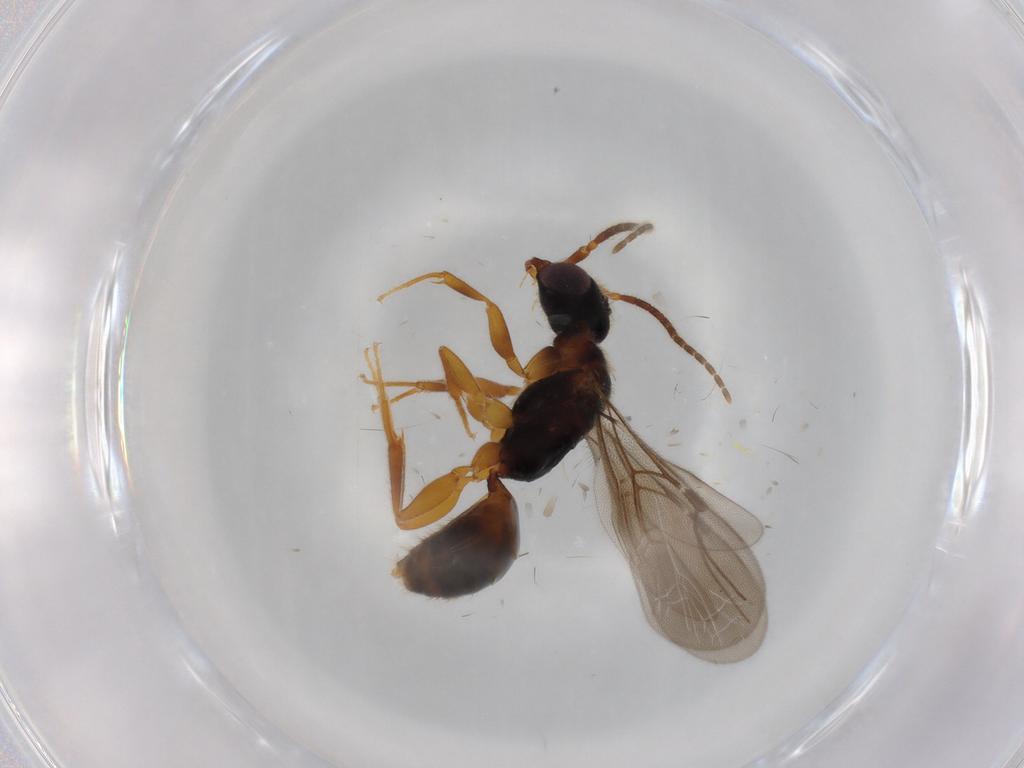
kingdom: Animalia
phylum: Arthropoda
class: Insecta
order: Hymenoptera
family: Bethylidae
